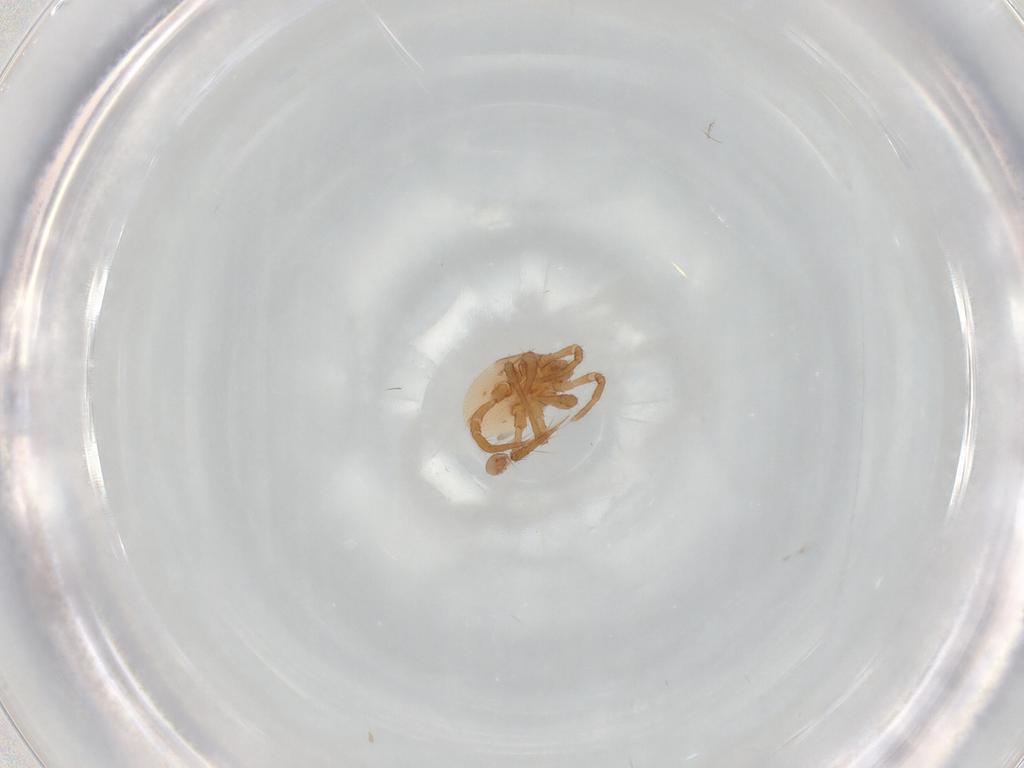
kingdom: Animalia
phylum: Arthropoda
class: Arachnida
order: Trombidiformes
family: Scutacaridae
